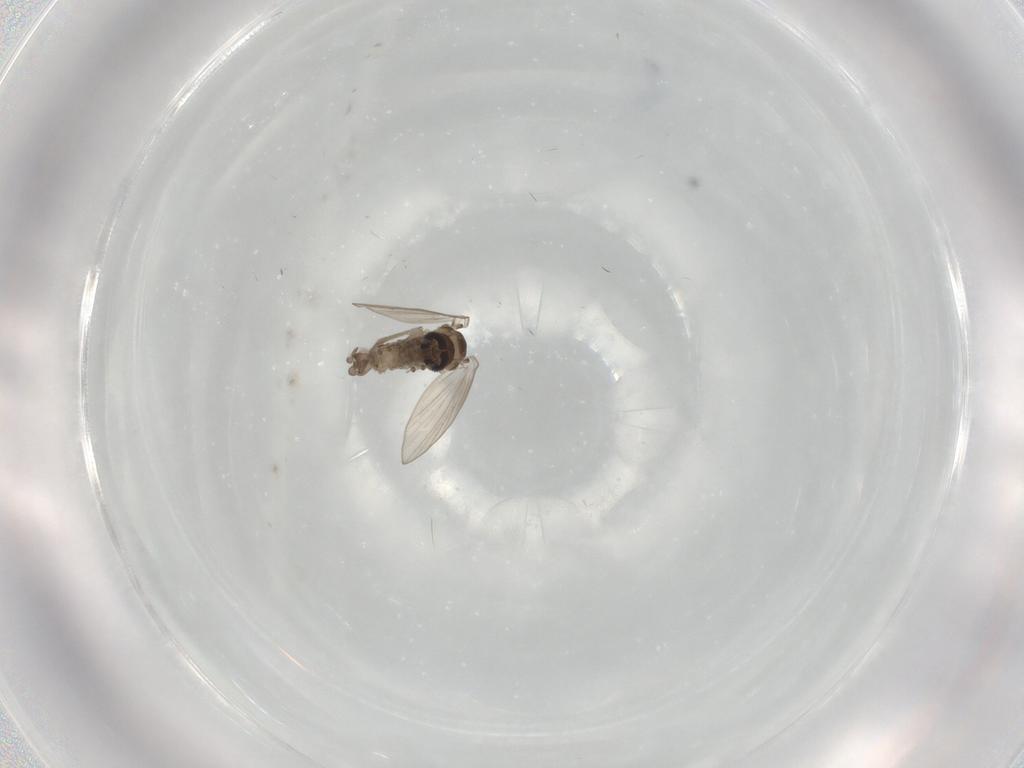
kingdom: Animalia
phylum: Arthropoda
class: Insecta
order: Diptera
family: Psychodidae
